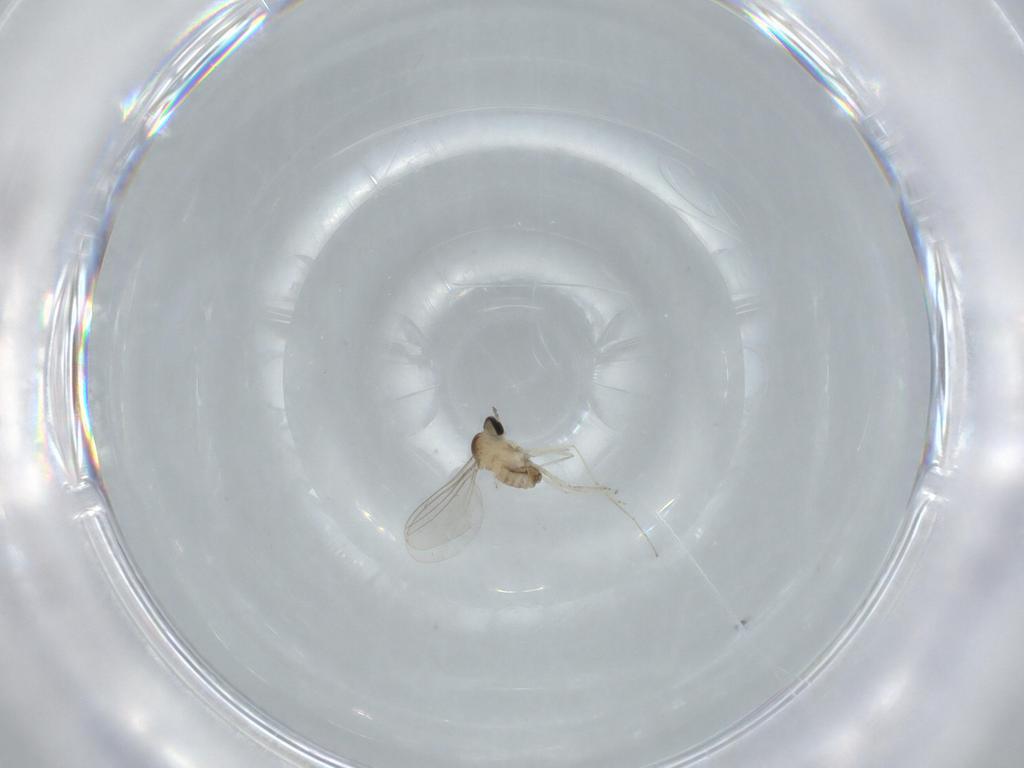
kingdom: Animalia
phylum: Arthropoda
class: Insecta
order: Diptera
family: Chironomidae
